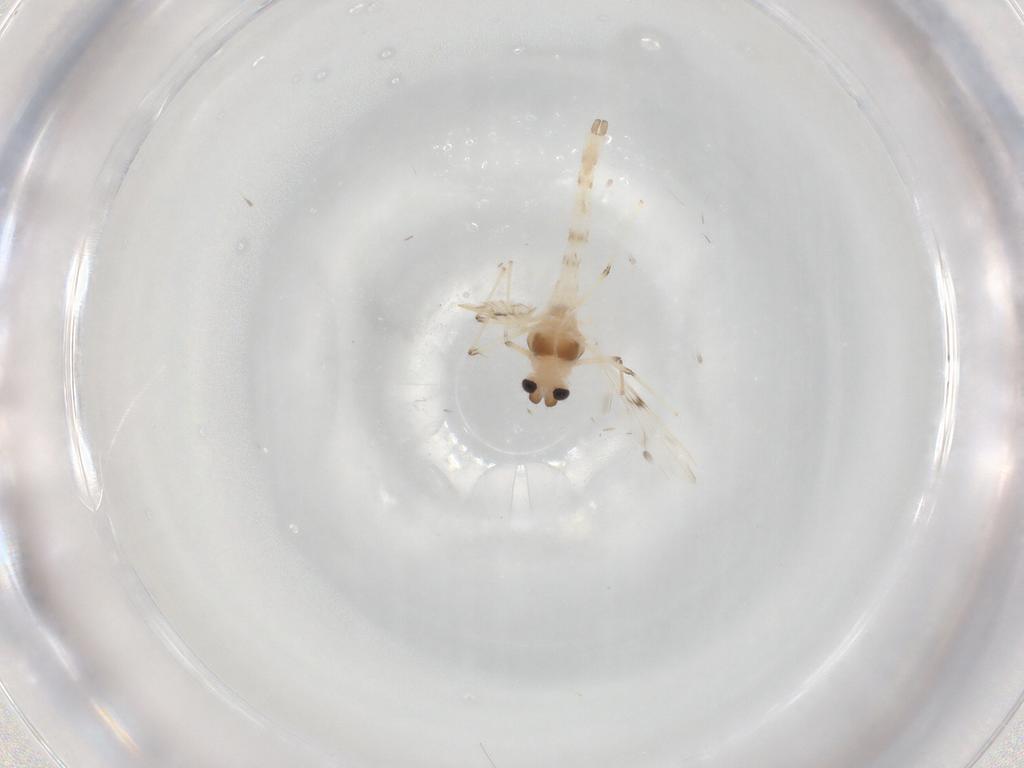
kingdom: Animalia
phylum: Arthropoda
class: Insecta
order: Diptera
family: Chironomidae
